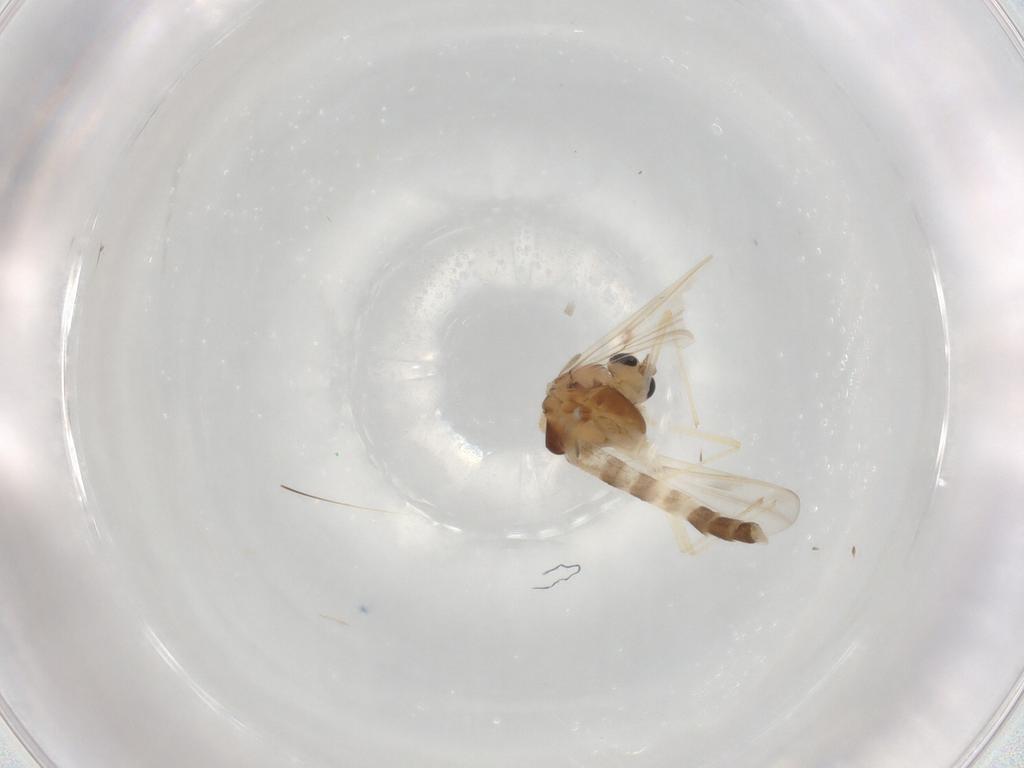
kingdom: Animalia
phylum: Arthropoda
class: Insecta
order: Diptera
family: Chironomidae
